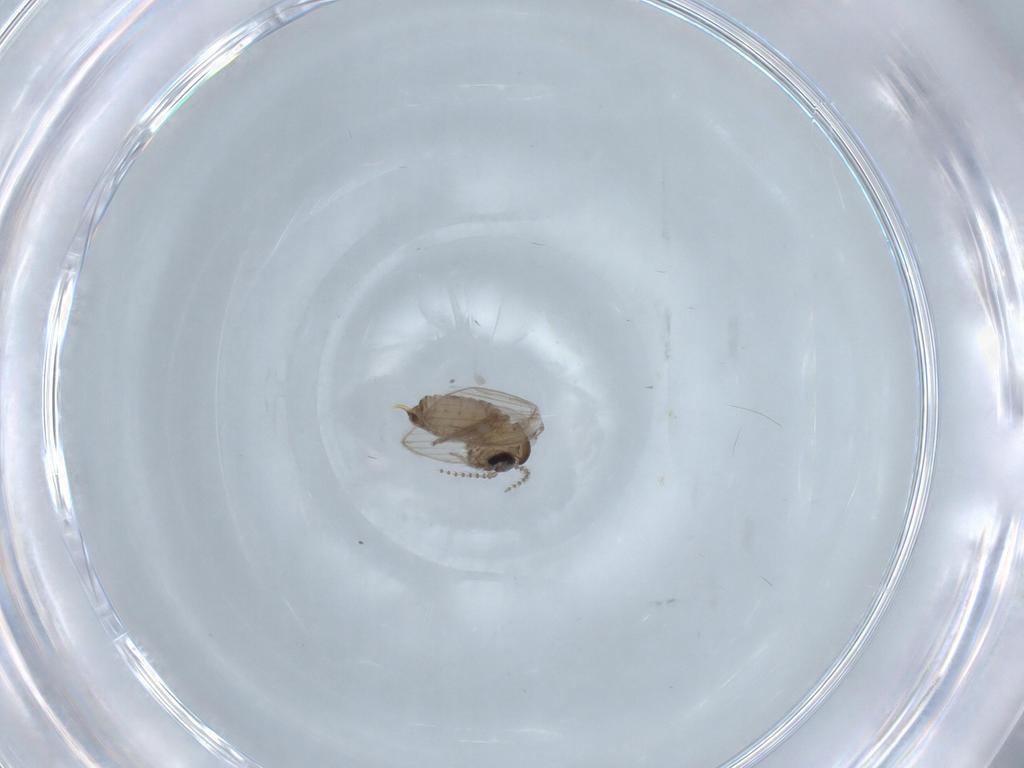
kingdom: Animalia
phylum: Arthropoda
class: Insecta
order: Diptera
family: Psychodidae
